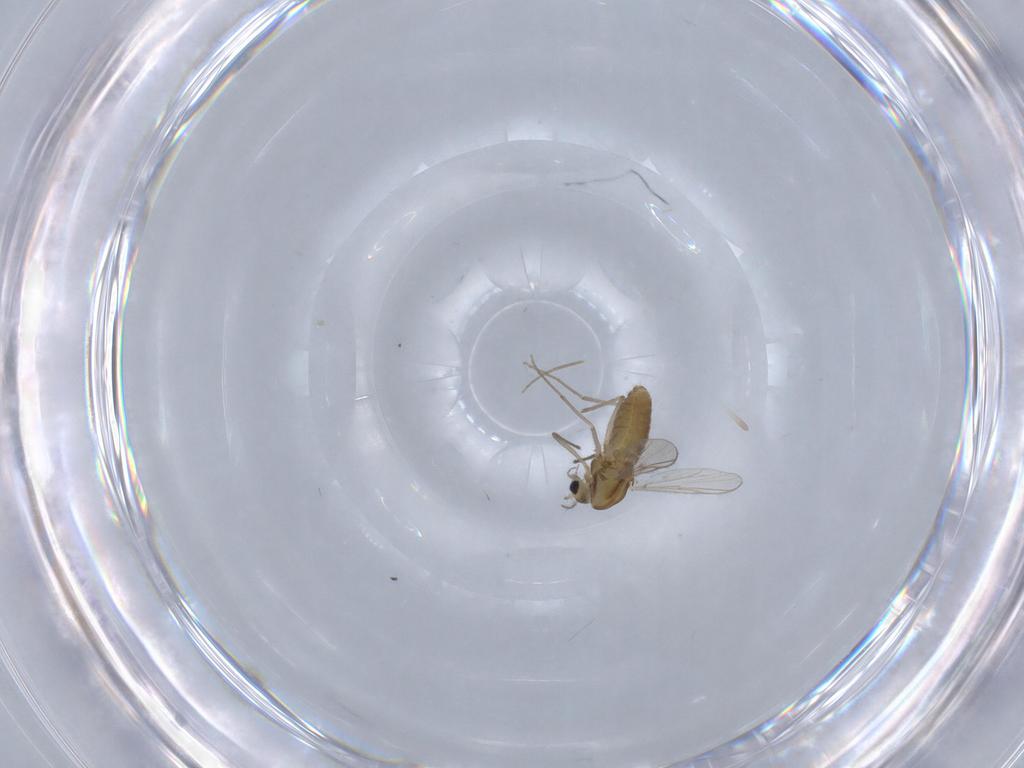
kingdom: Animalia
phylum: Arthropoda
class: Insecta
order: Diptera
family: Chironomidae
